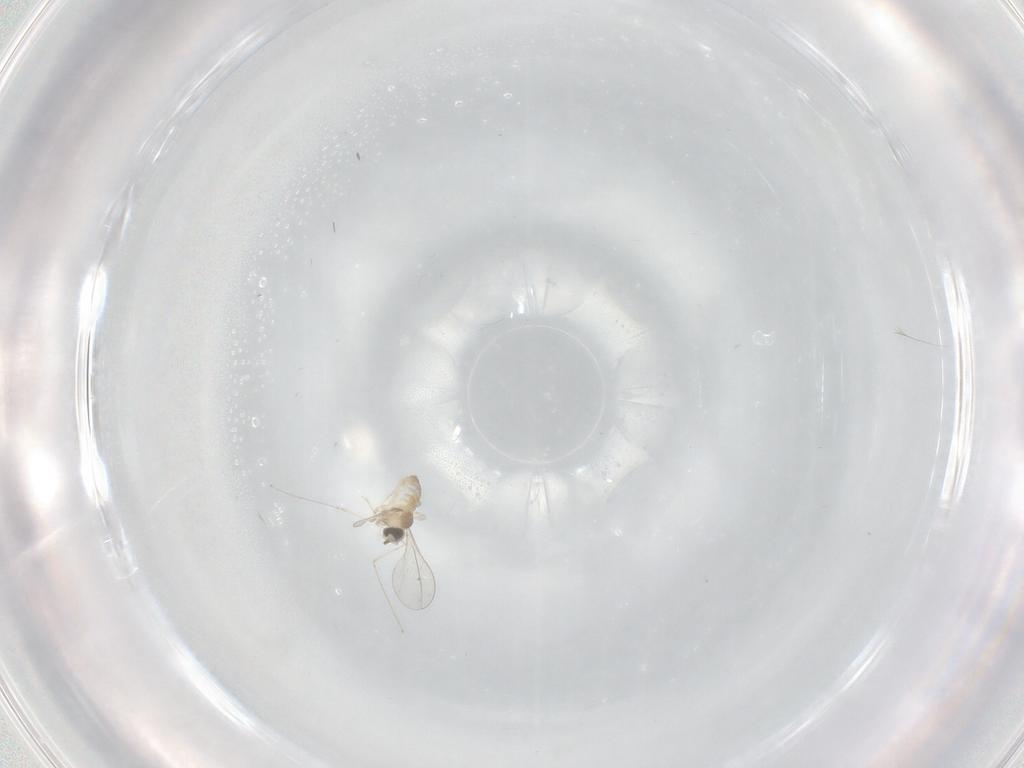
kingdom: Animalia
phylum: Arthropoda
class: Insecta
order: Diptera
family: Cecidomyiidae
